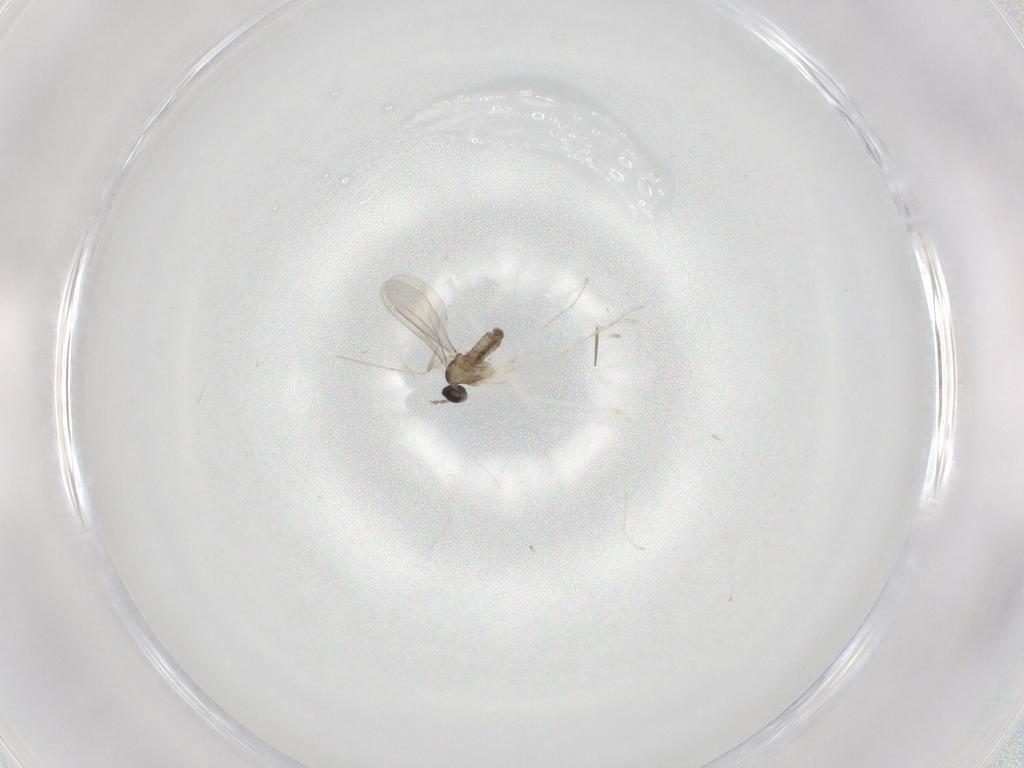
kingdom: Animalia
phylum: Arthropoda
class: Insecta
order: Diptera
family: Cecidomyiidae
